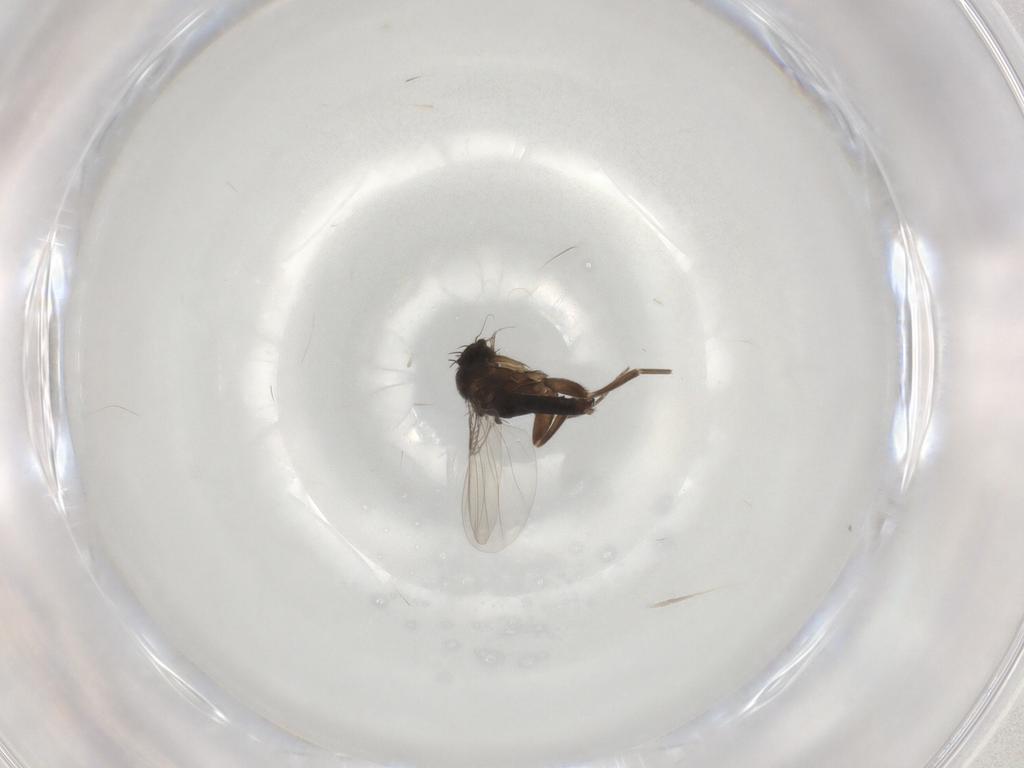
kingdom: Animalia
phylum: Arthropoda
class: Insecta
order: Diptera
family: Phoridae
